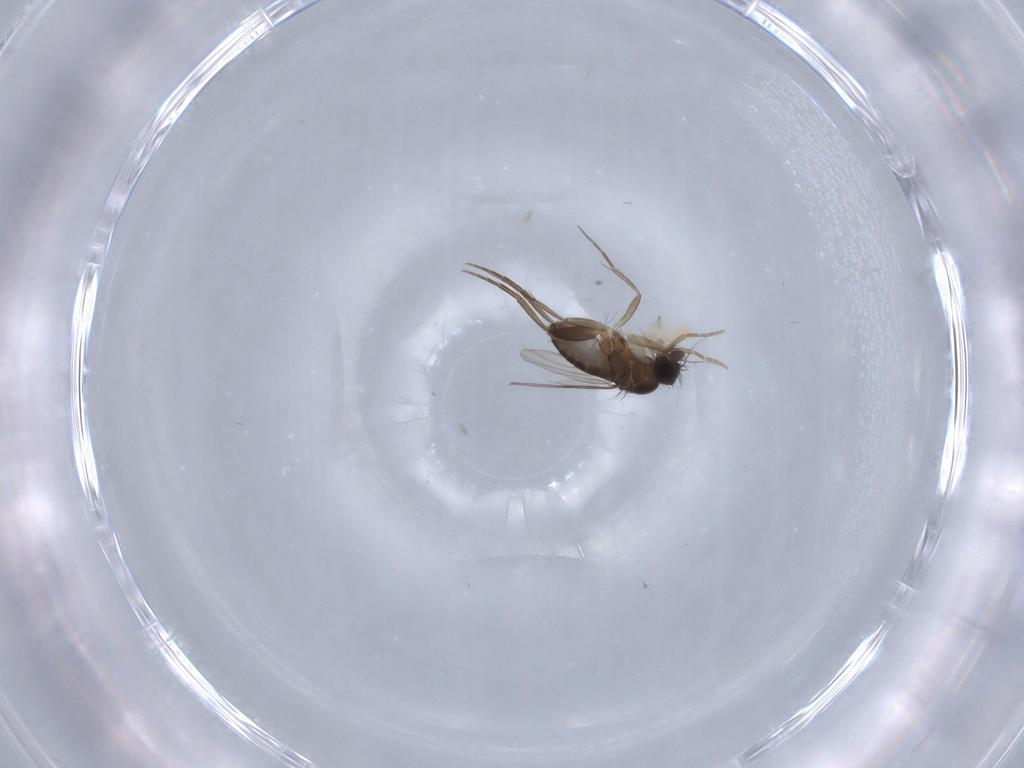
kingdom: Animalia
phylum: Arthropoda
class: Insecta
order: Diptera
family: Phoridae
